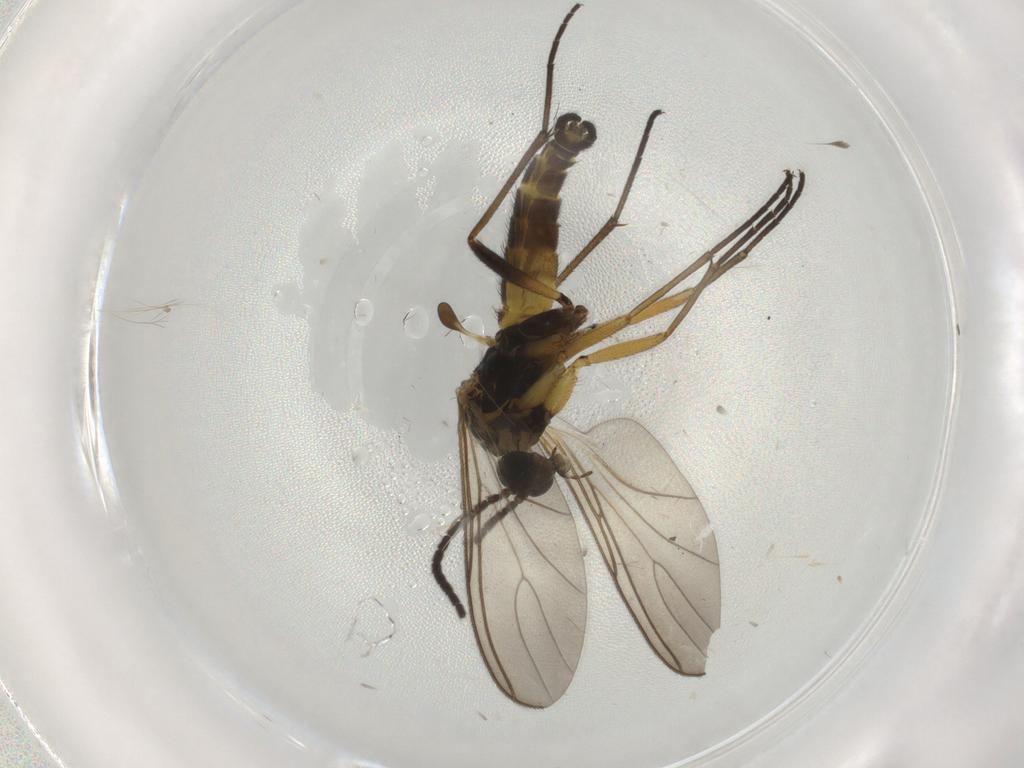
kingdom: Animalia
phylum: Arthropoda
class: Insecta
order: Diptera
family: Sciaridae
